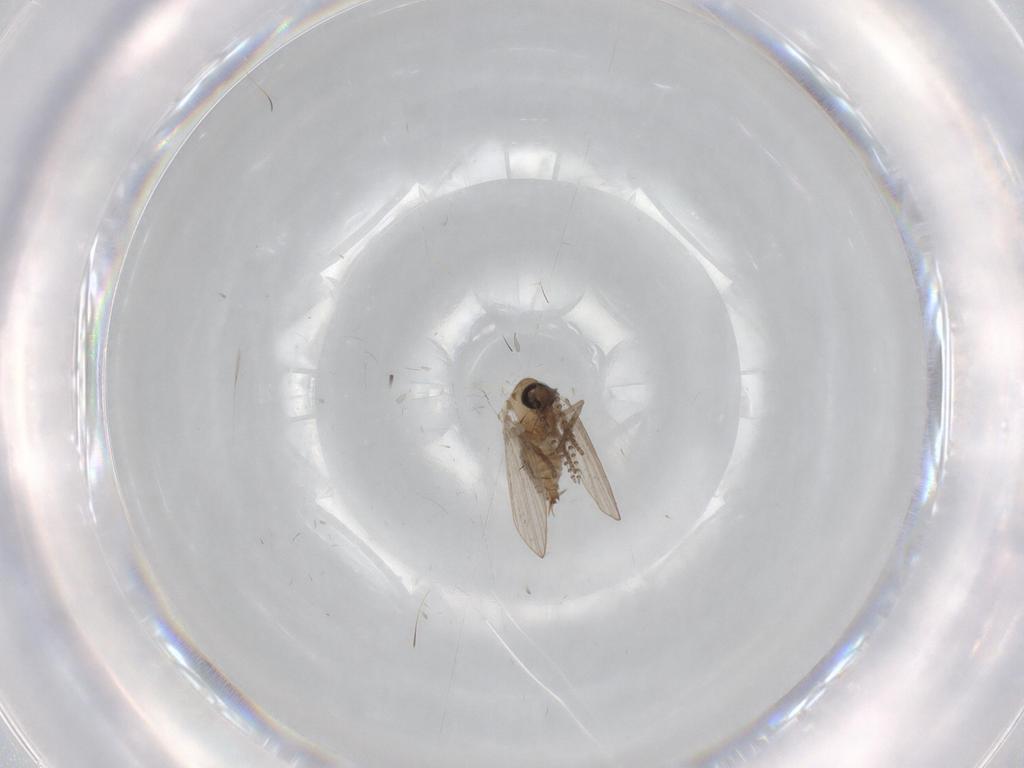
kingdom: Animalia
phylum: Arthropoda
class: Insecta
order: Diptera
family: Psychodidae
